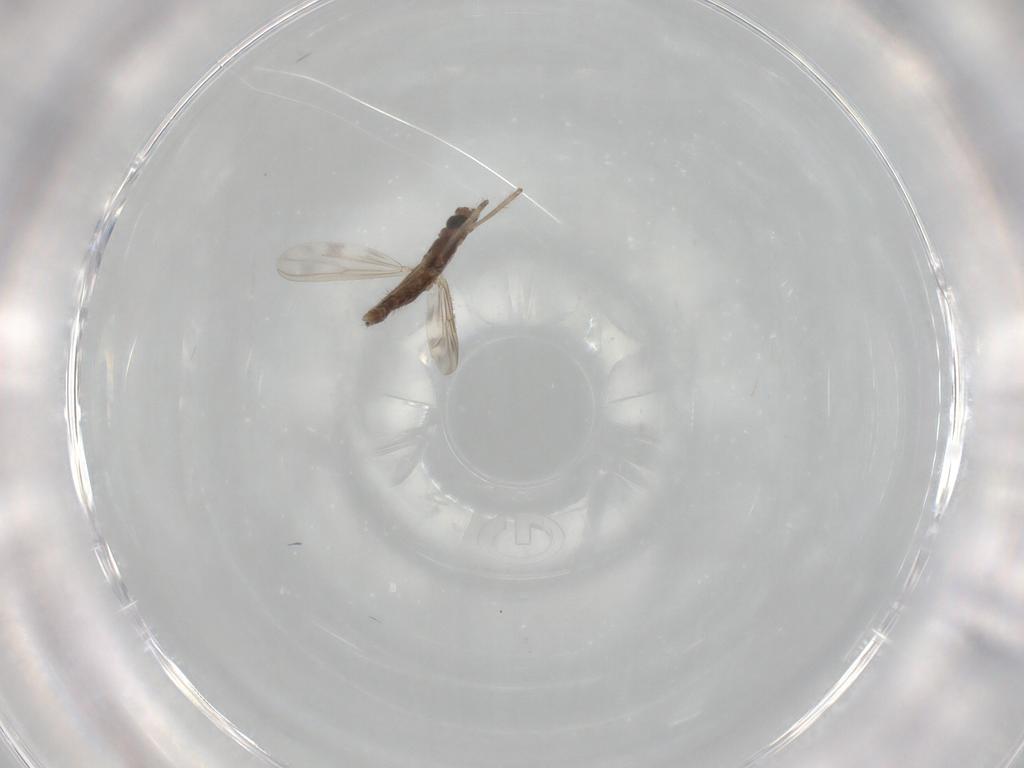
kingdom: Animalia
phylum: Arthropoda
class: Insecta
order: Diptera
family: Chironomidae
